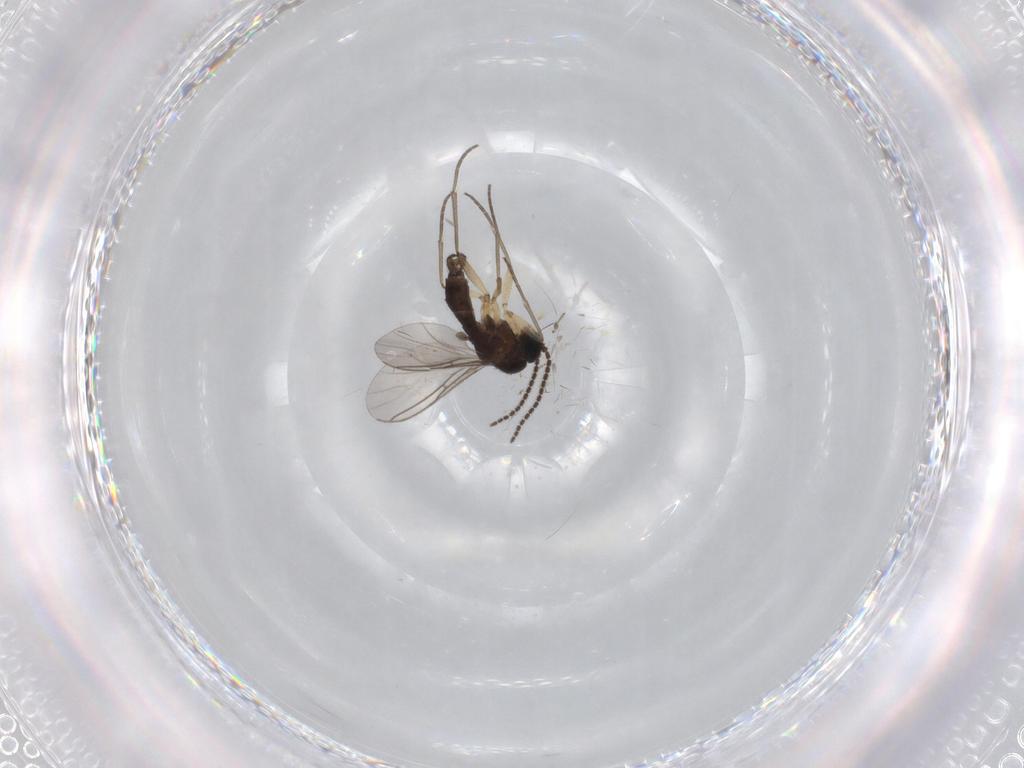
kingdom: Animalia
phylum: Arthropoda
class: Insecta
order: Diptera
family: Sciaridae
